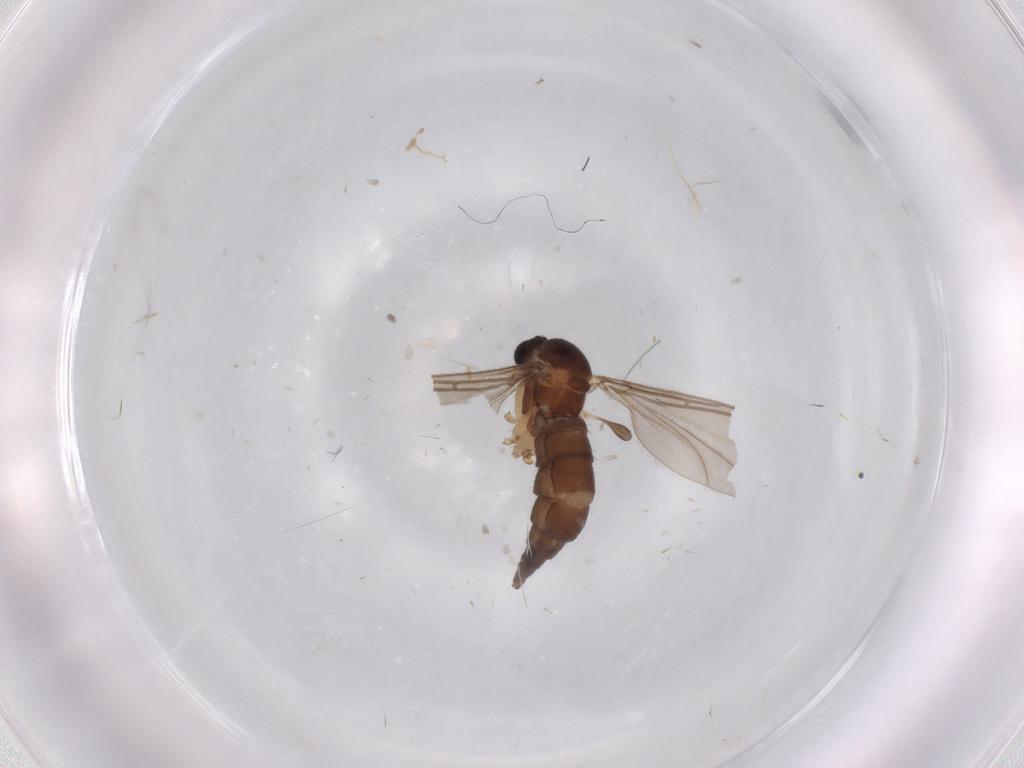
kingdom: Animalia
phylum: Arthropoda
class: Insecta
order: Diptera
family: Sciaridae
